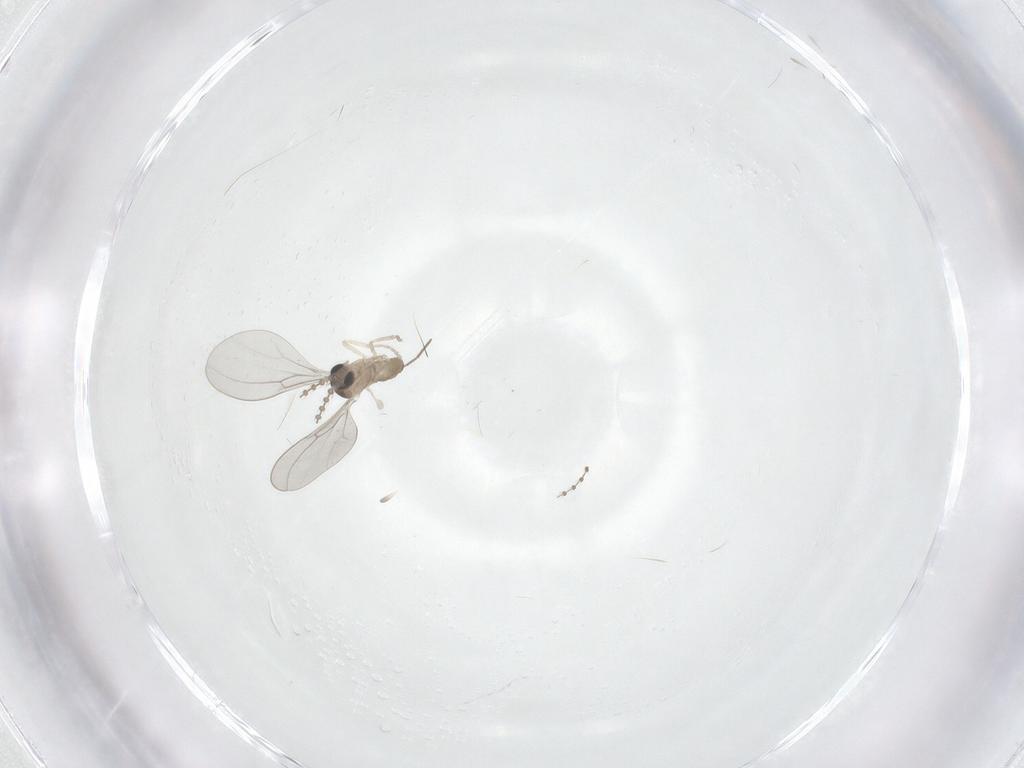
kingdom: Animalia
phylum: Arthropoda
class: Insecta
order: Diptera
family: Cecidomyiidae
